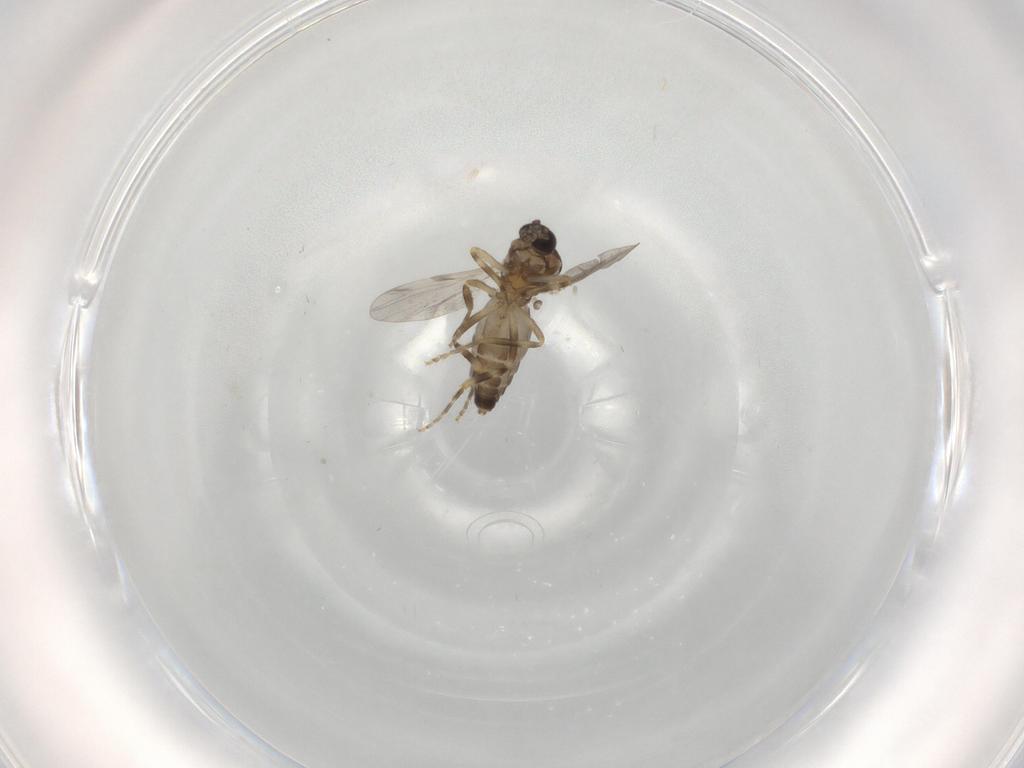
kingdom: Animalia
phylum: Arthropoda
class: Insecta
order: Diptera
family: Ceratopogonidae
